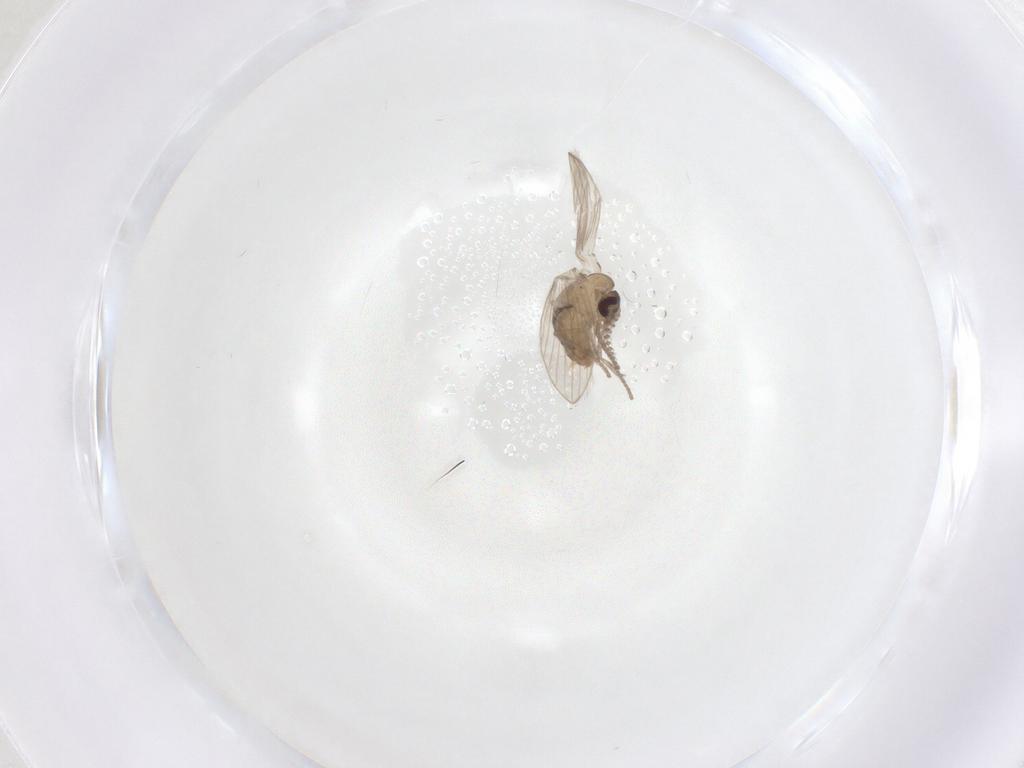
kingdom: Animalia
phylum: Arthropoda
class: Insecta
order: Diptera
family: Psychodidae
